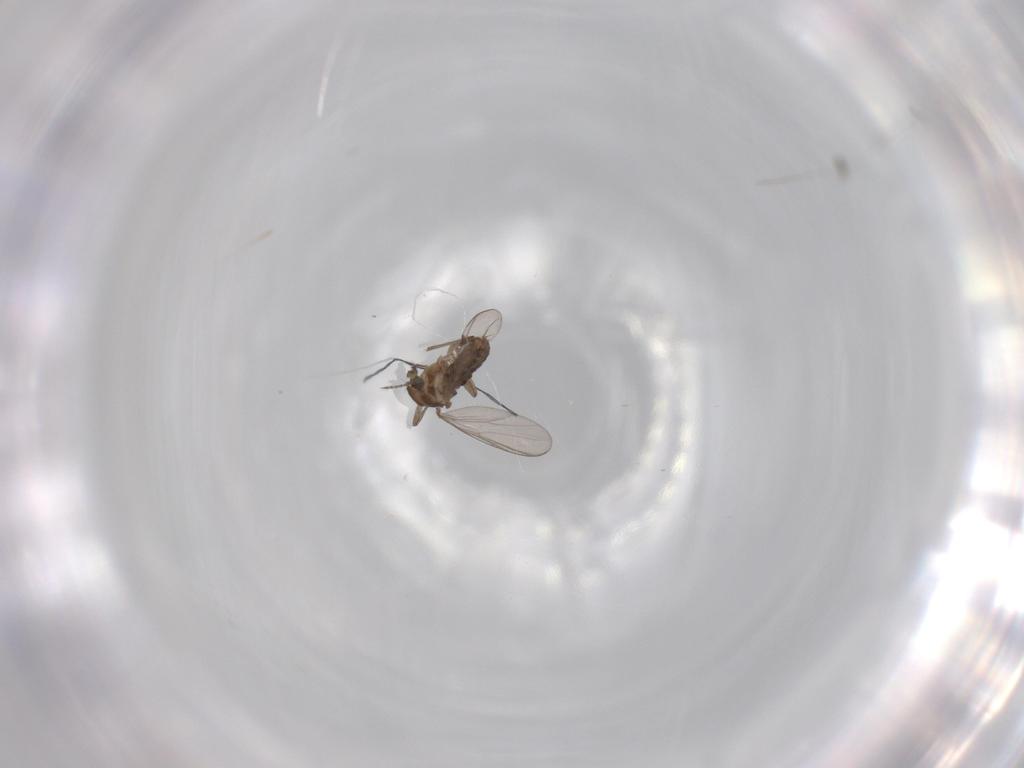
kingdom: Animalia
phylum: Arthropoda
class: Insecta
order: Diptera
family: Chironomidae
